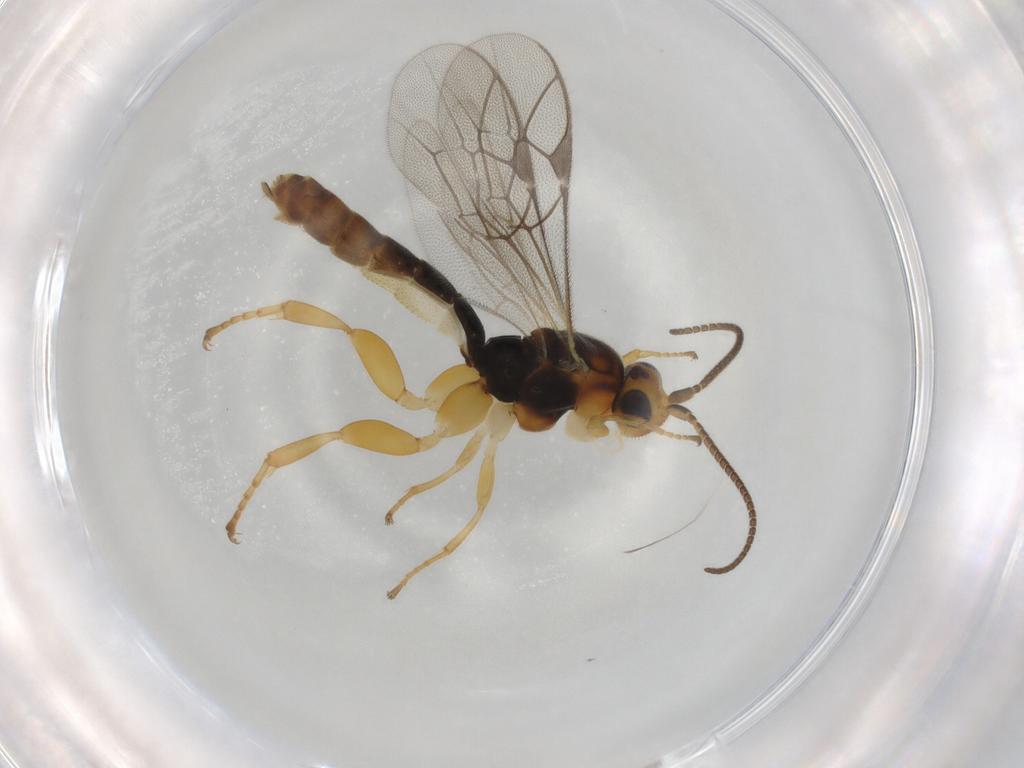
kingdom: Animalia
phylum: Arthropoda
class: Insecta
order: Hymenoptera
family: Ichneumonidae
